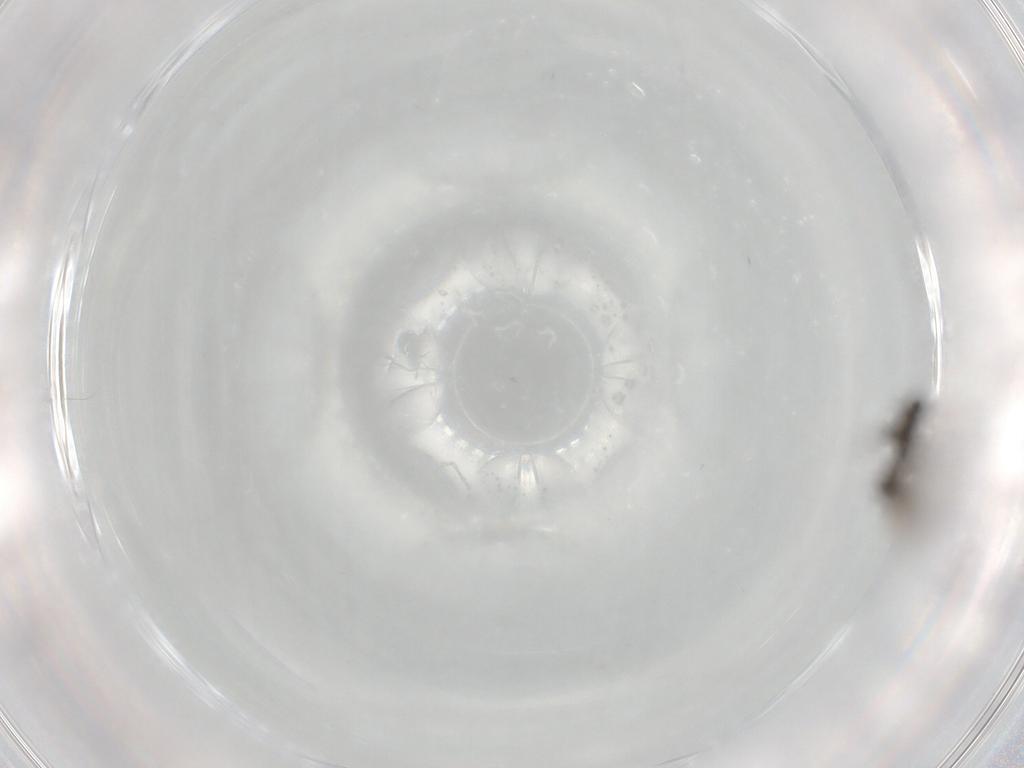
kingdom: Animalia
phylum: Arthropoda
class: Insecta
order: Diptera
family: Cecidomyiidae
